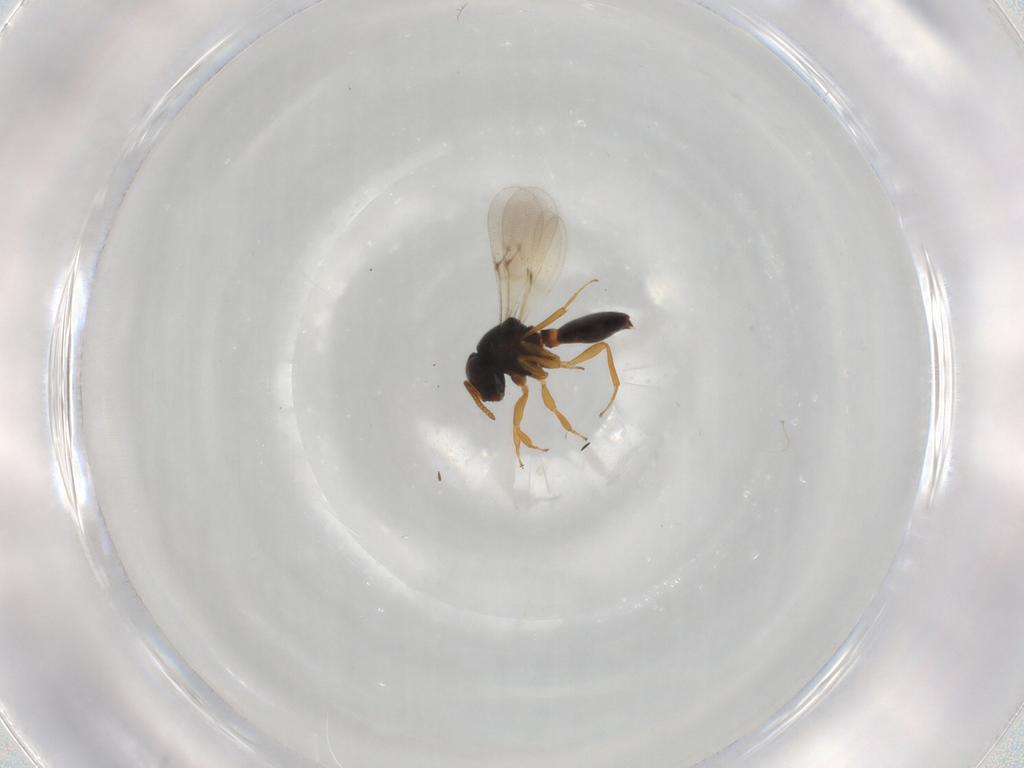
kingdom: Animalia
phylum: Arthropoda
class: Insecta
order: Hymenoptera
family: Scelionidae
